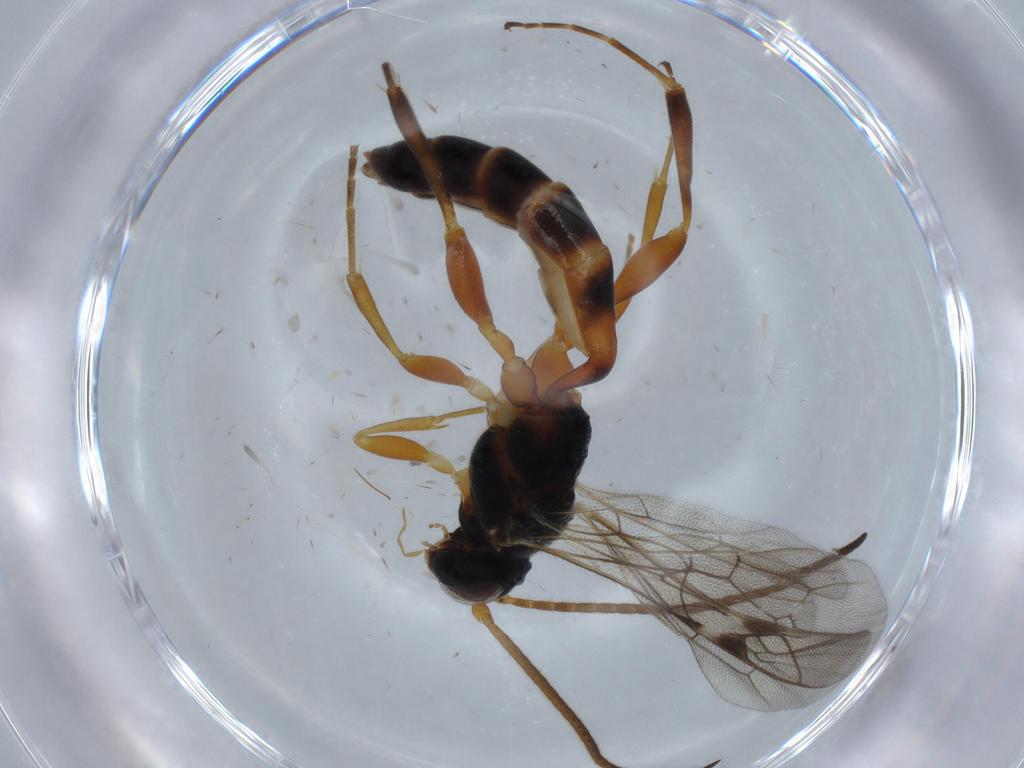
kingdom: Animalia
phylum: Arthropoda
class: Insecta
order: Hymenoptera
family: Ichneumonidae
